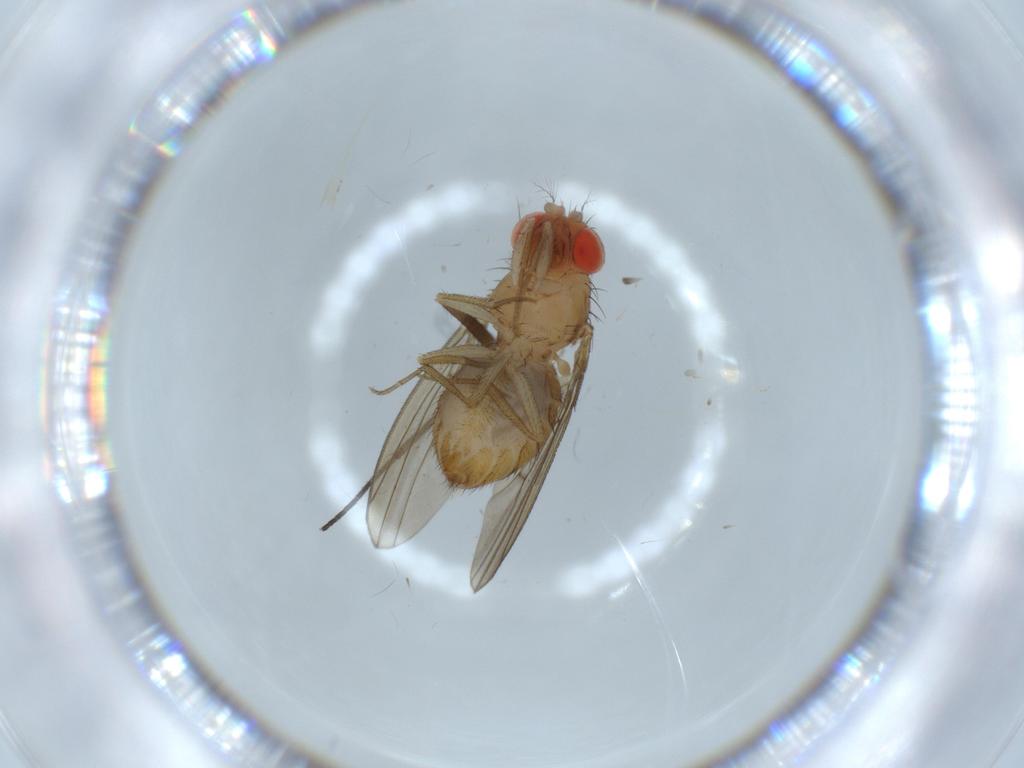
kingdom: Animalia
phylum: Arthropoda
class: Insecta
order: Diptera
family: Drosophilidae
